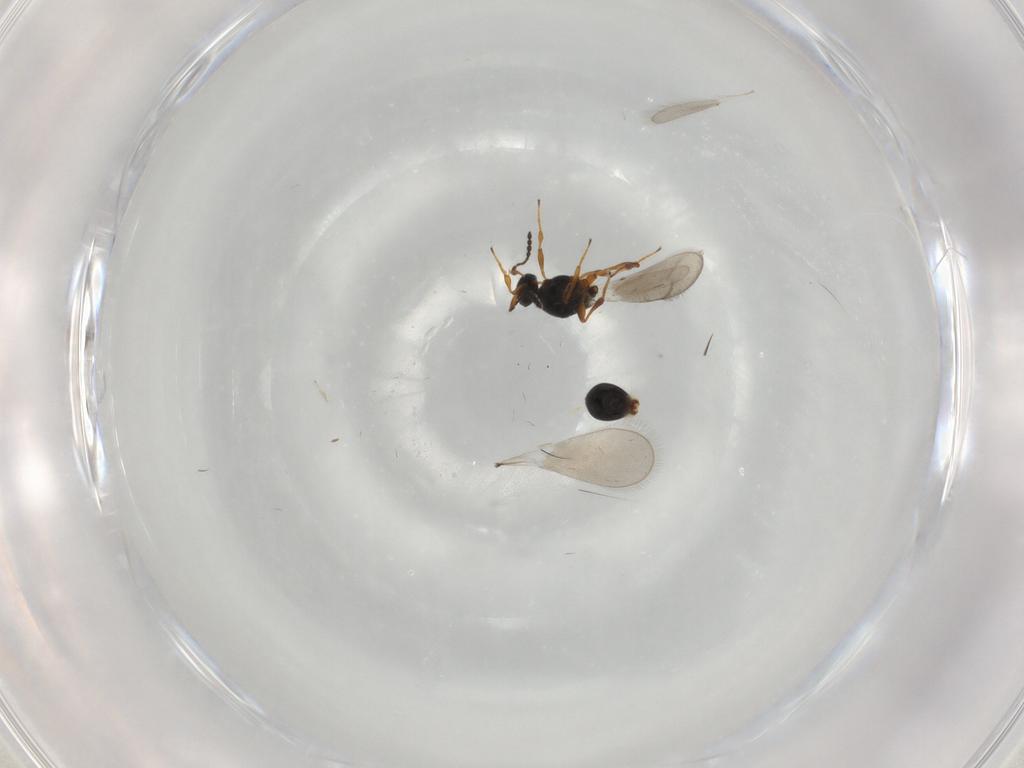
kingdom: Animalia
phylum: Arthropoda
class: Insecta
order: Hymenoptera
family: Platygastridae
